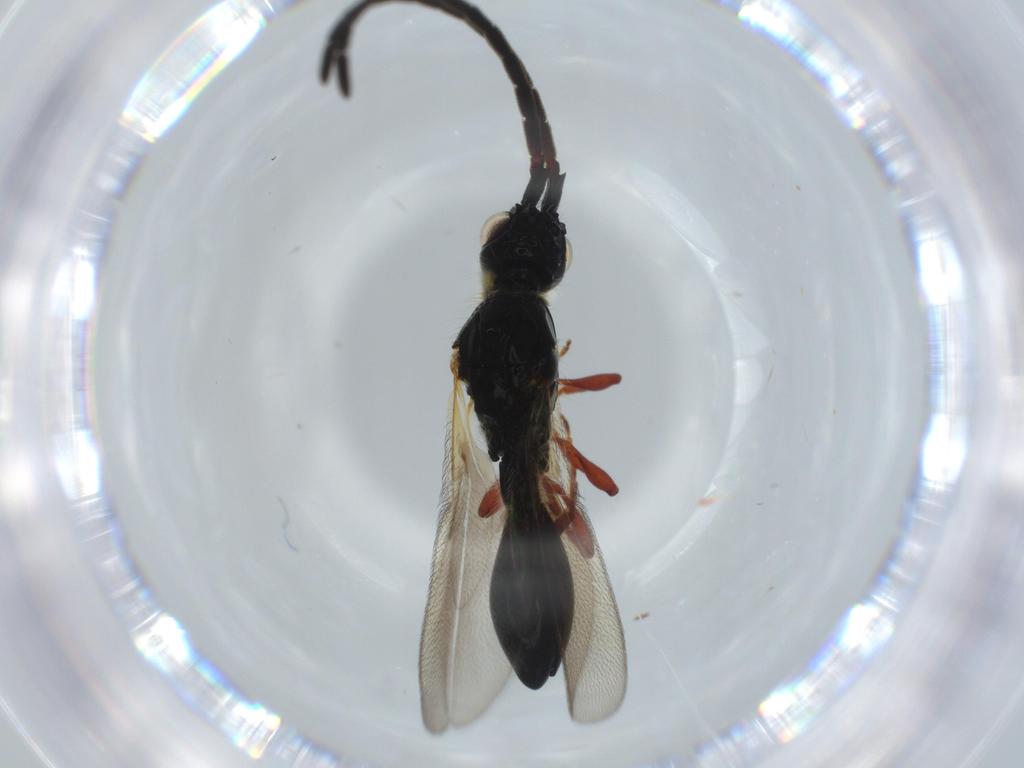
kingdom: Animalia
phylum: Arthropoda
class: Insecta
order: Hymenoptera
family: Diapriidae
